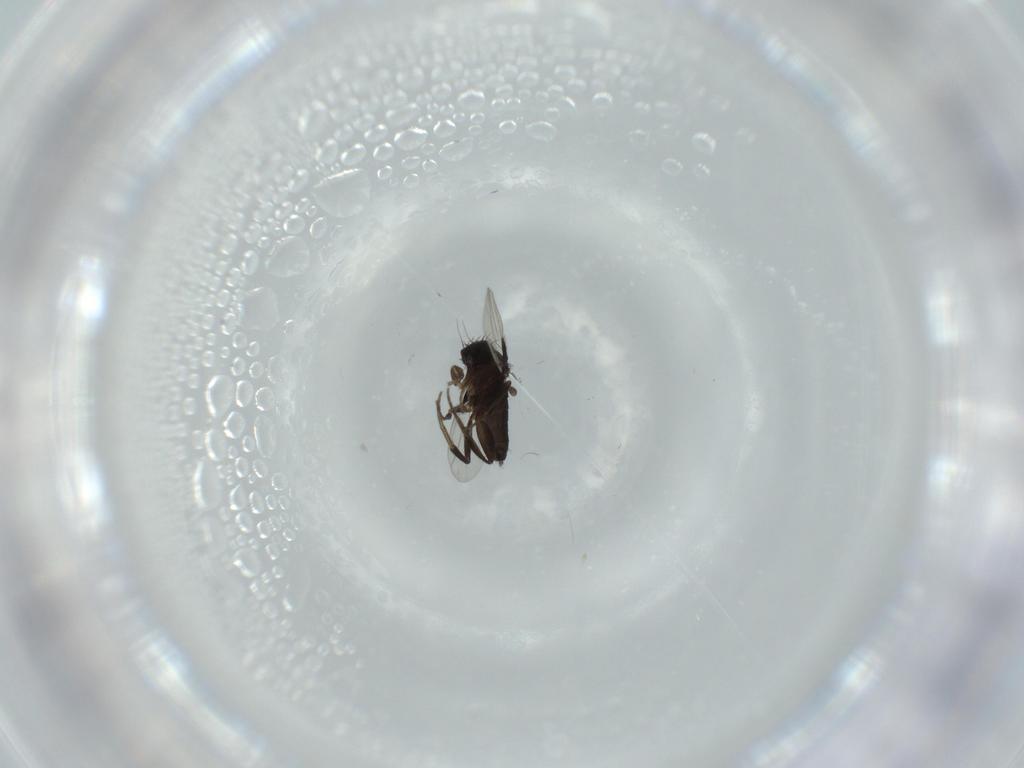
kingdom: Animalia
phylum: Arthropoda
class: Insecta
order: Diptera
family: Phoridae
